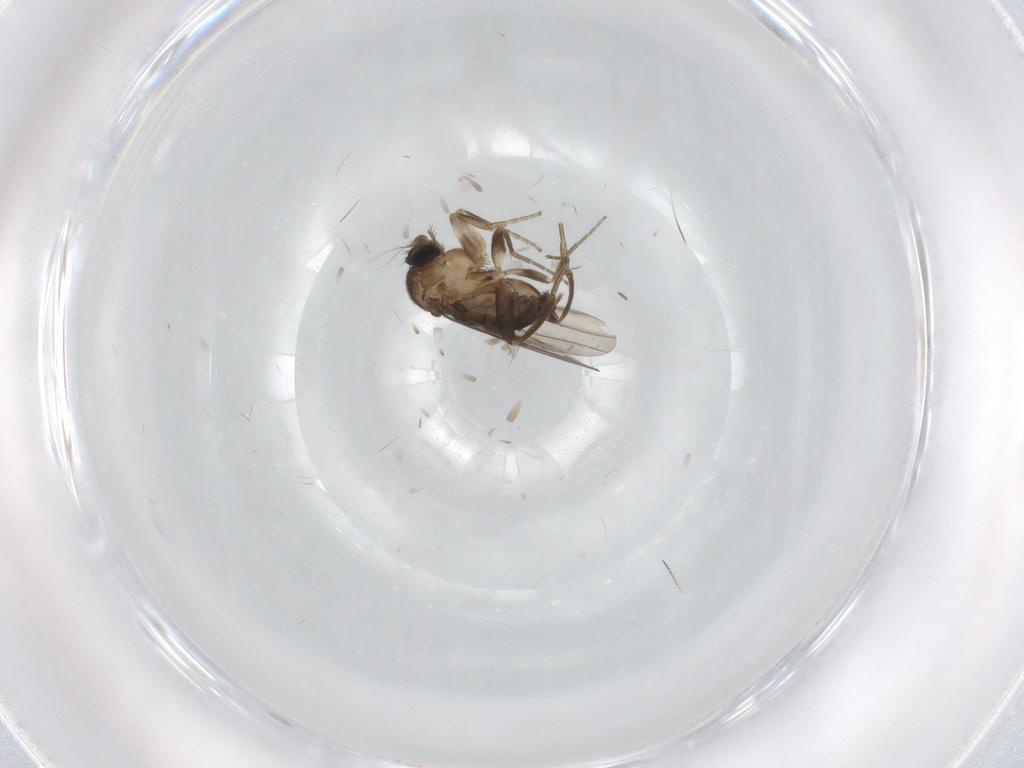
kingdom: Animalia
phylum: Arthropoda
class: Insecta
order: Diptera
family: Phoridae
